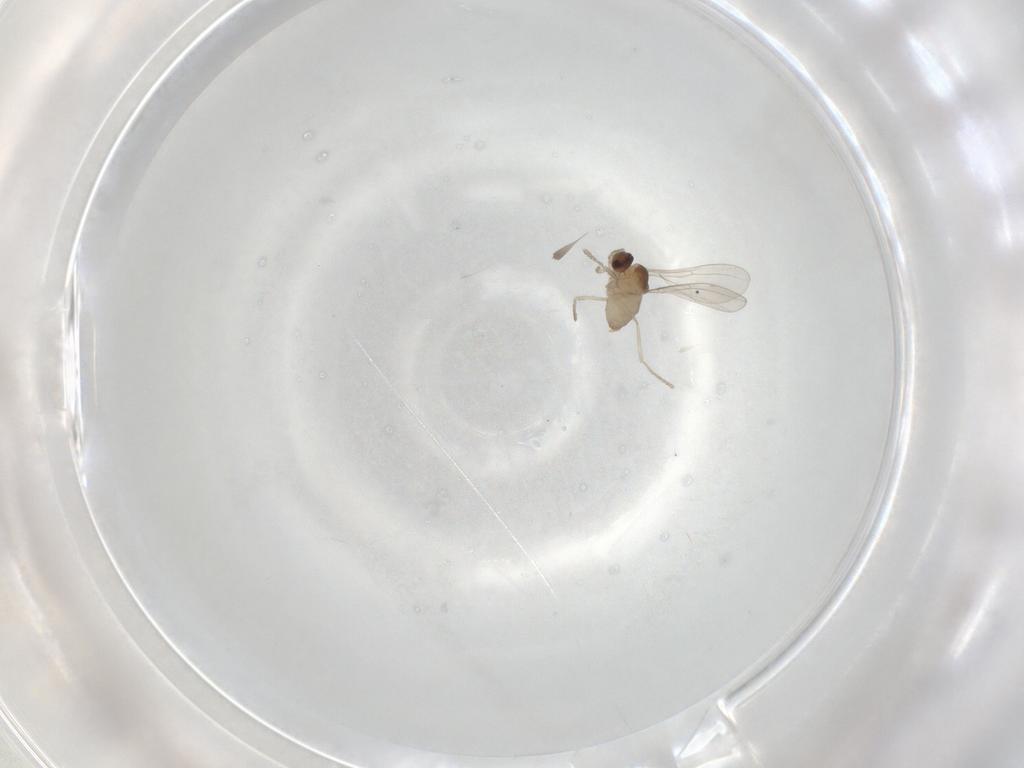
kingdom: Animalia
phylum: Arthropoda
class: Insecta
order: Diptera
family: Cecidomyiidae
